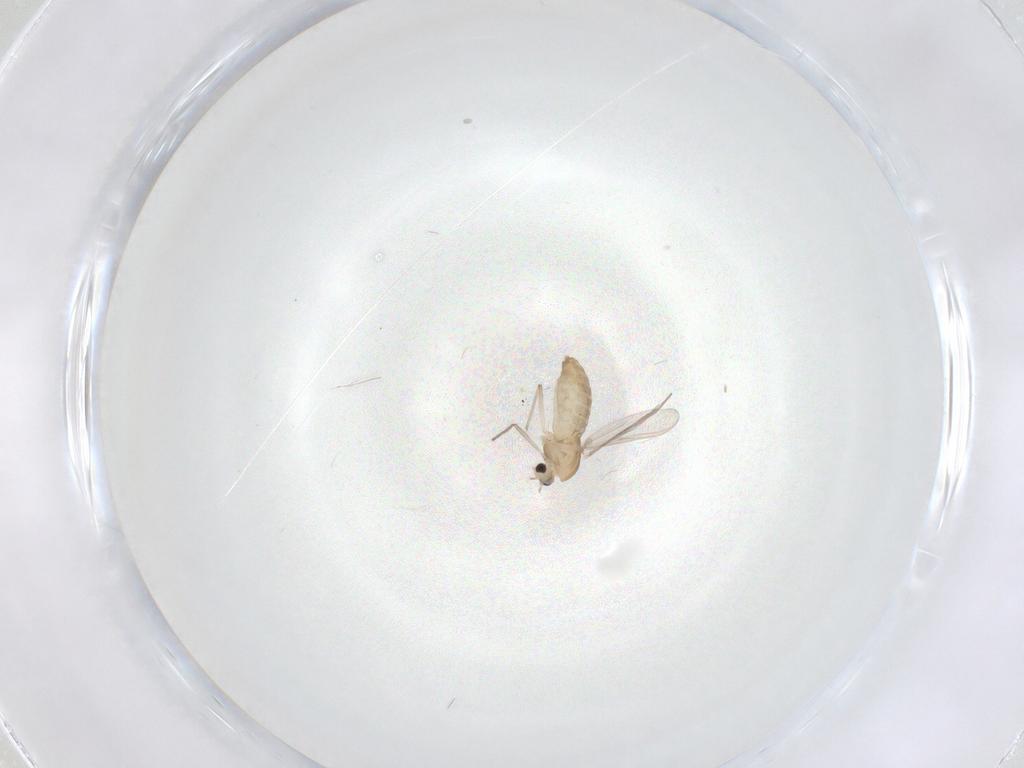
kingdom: Animalia
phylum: Arthropoda
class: Insecta
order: Diptera
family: Chironomidae
